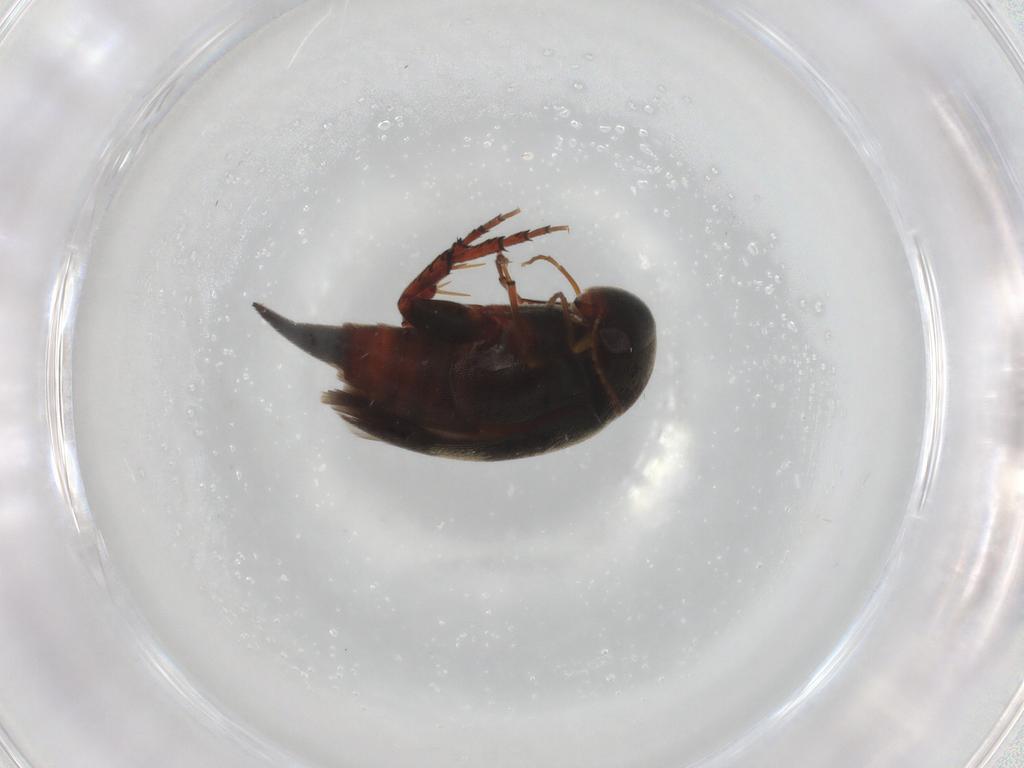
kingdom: Animalia
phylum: Arthropoda
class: Insecta
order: Coleoptera
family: Mordellidae
